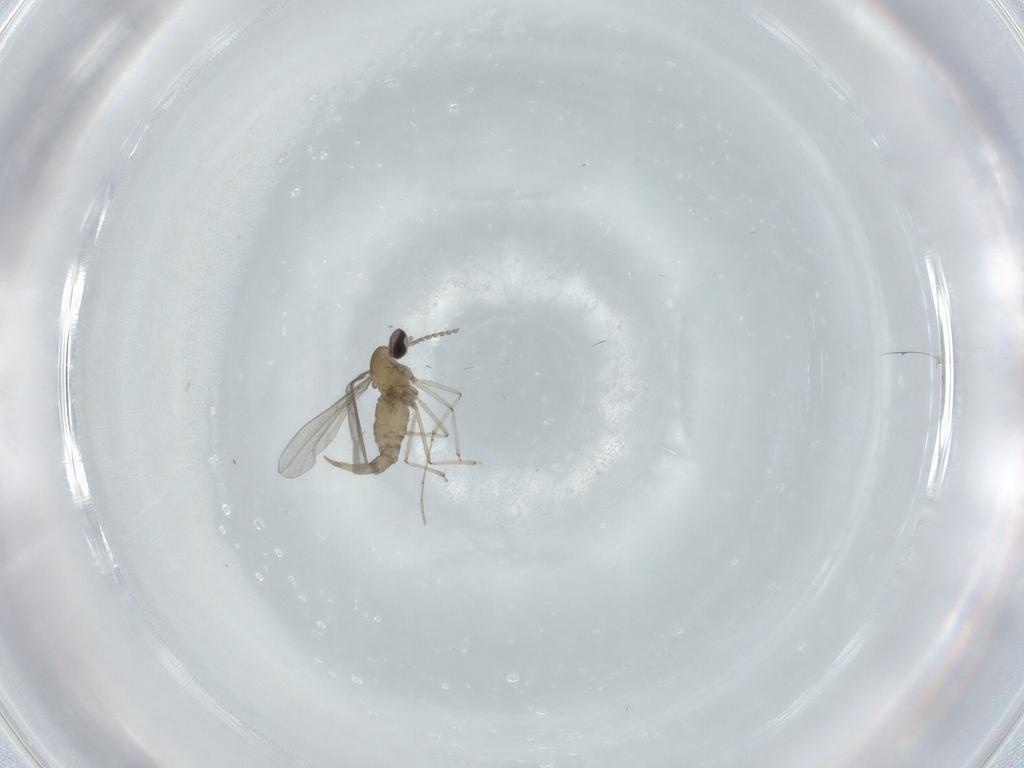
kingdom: Animalia
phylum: Arthropoda
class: Insecta
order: Diptera
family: Cecidomyiidae
